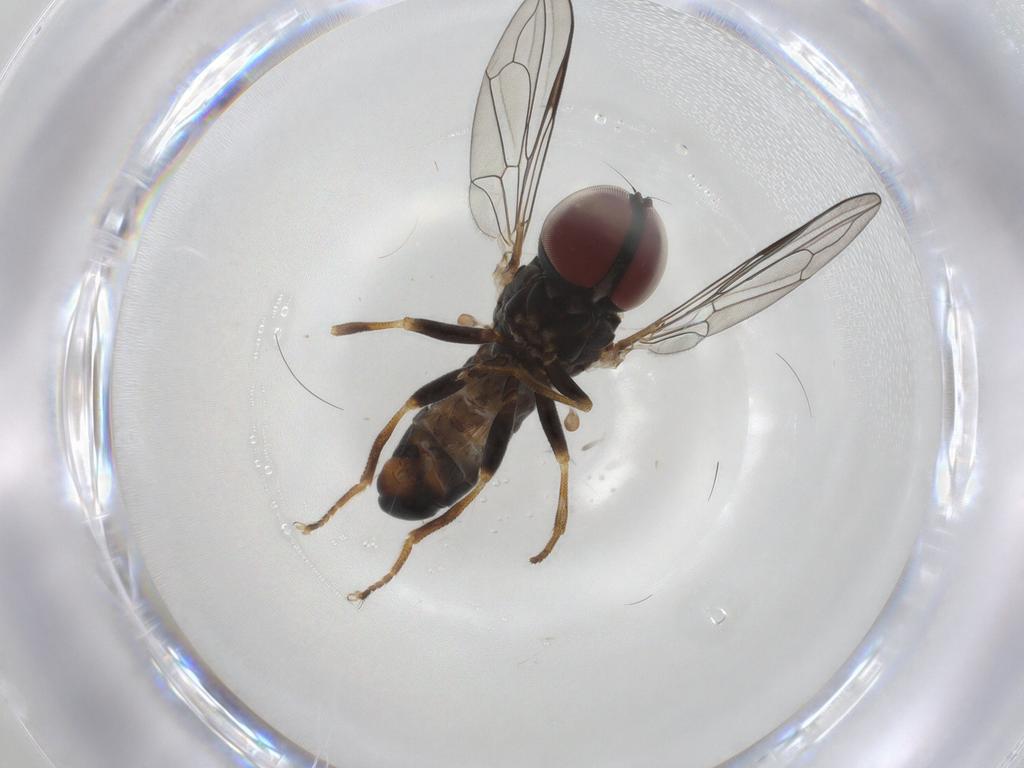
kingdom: Animalia
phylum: Arthropoda
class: Insecta
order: Diptera
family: Pipunculidae
